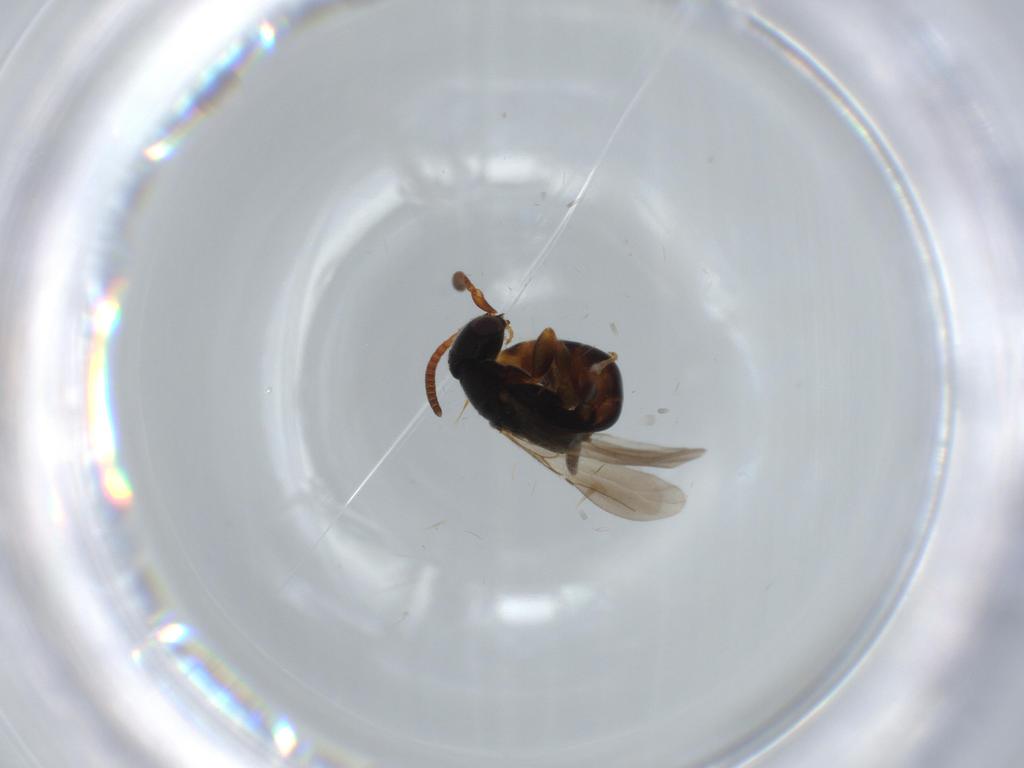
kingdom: Animalia
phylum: Arthropoda
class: Insecta
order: Hymenoptera
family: Bethylidae
